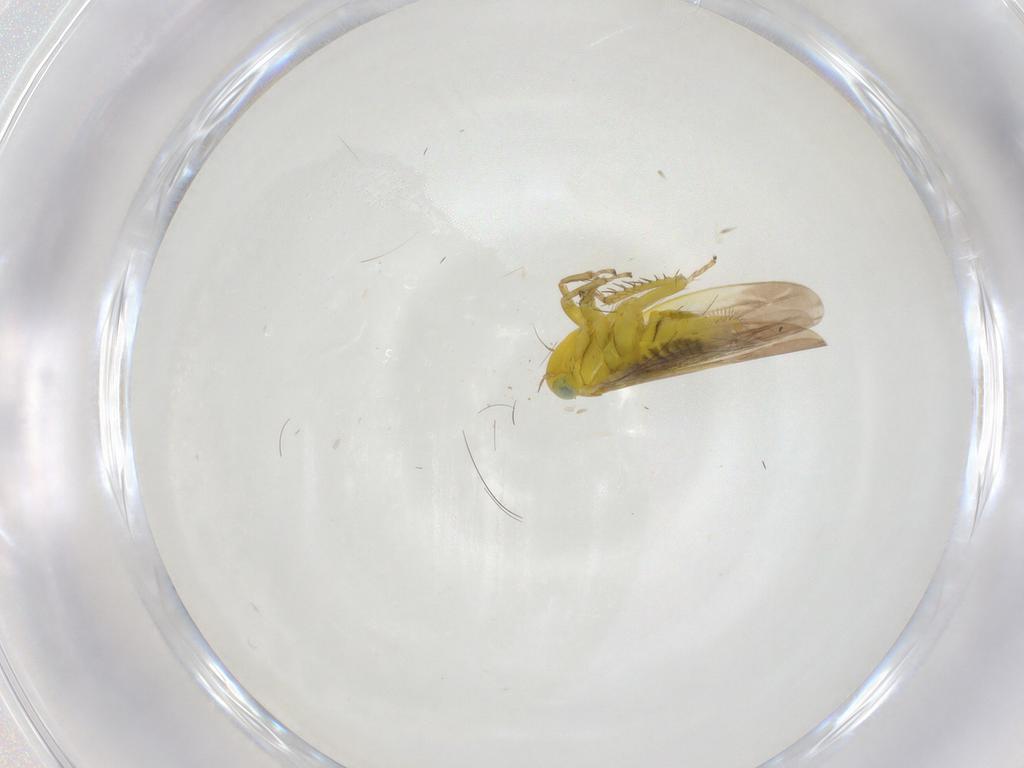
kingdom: Animalia
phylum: Arthropoda
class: Insecta
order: Hemiptera
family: Cicadellidae
